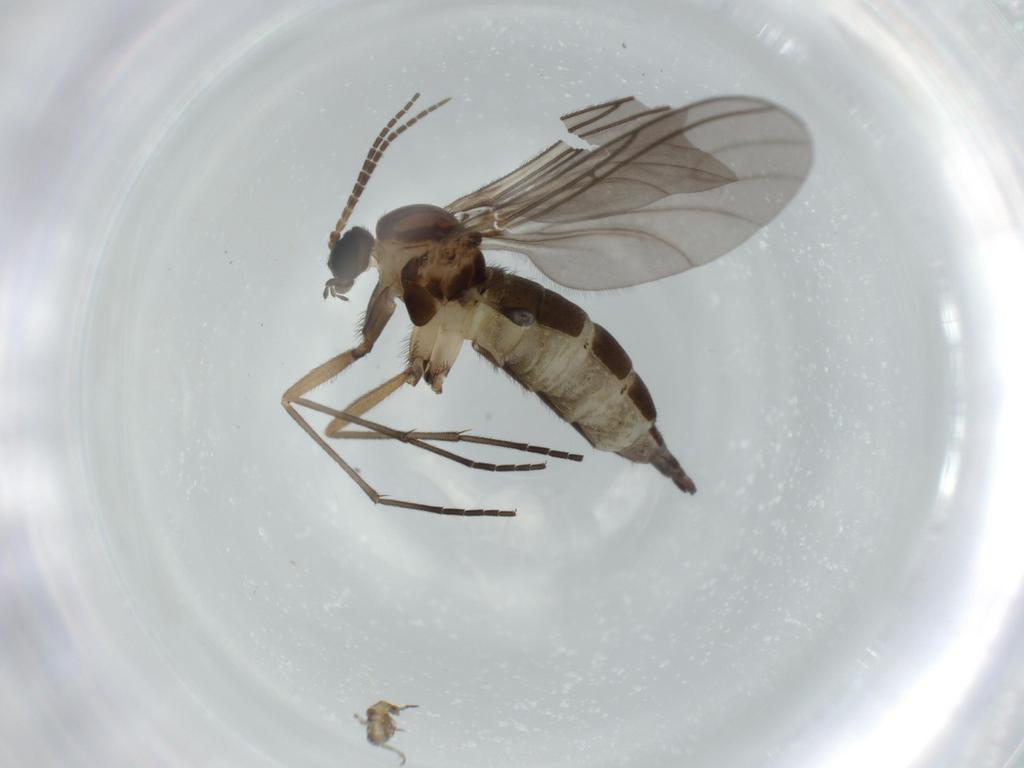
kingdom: Animalia
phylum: Arthropoda
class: Insecta
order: Diptera
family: Sciaridae
